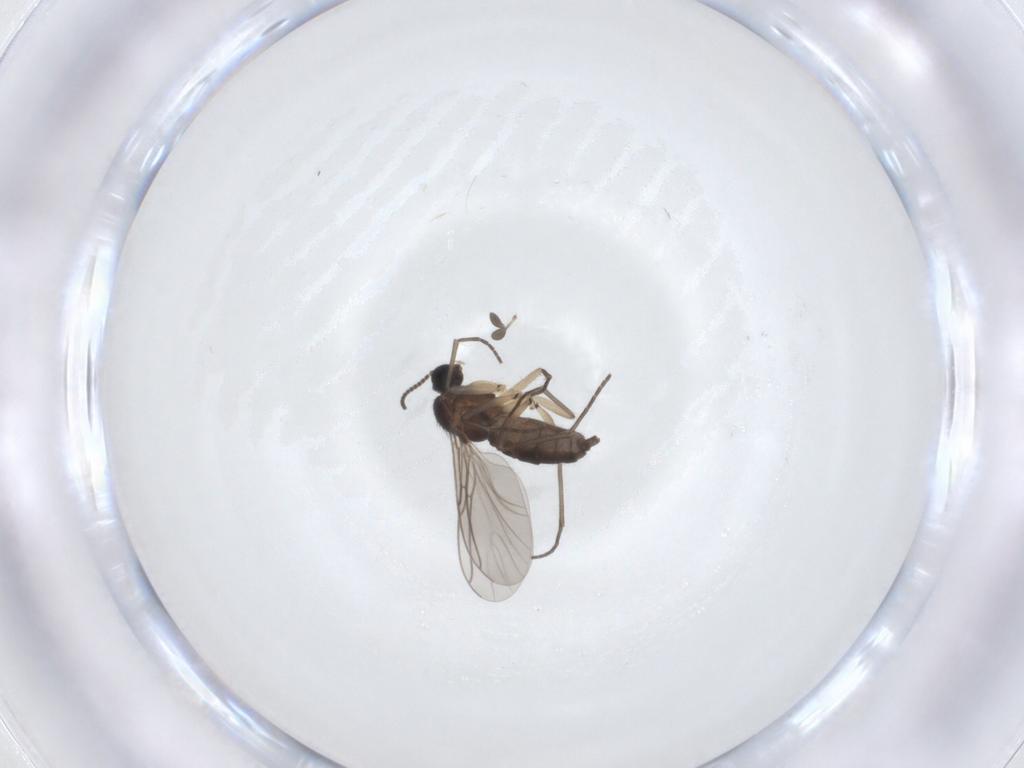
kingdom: Animalia
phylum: Arthropoda
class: Insecta
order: Diptera
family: Sciaridae
